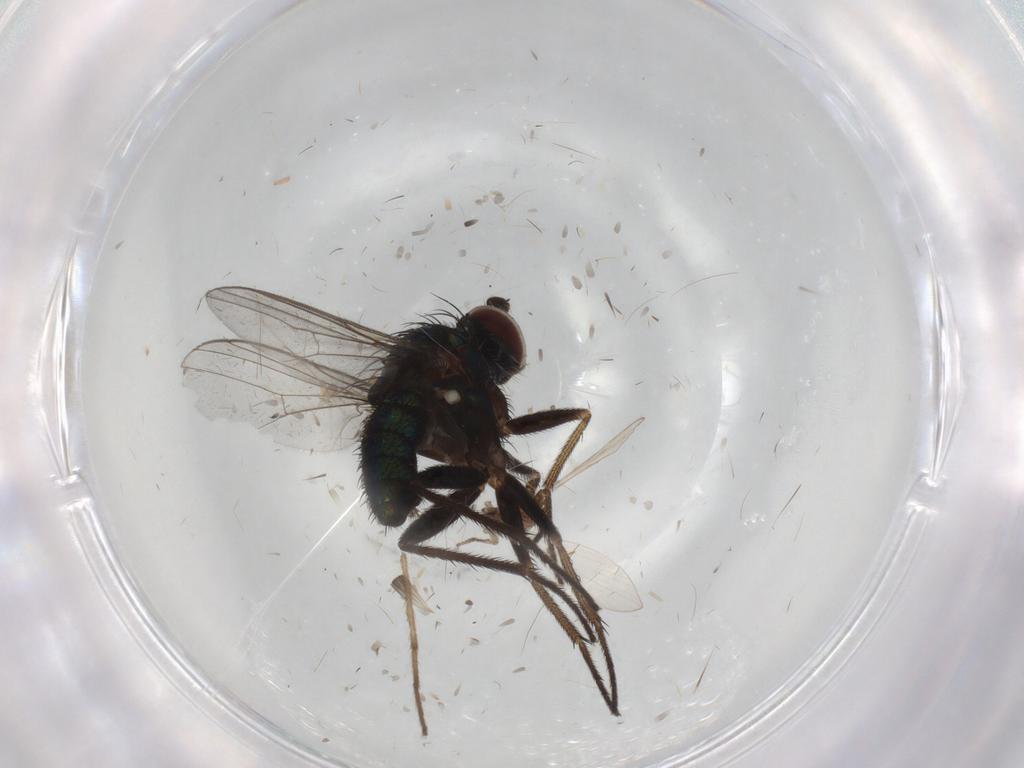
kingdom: Animalia
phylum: Arthropoda
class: Insecta
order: Diptera
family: Dolichopodidae
